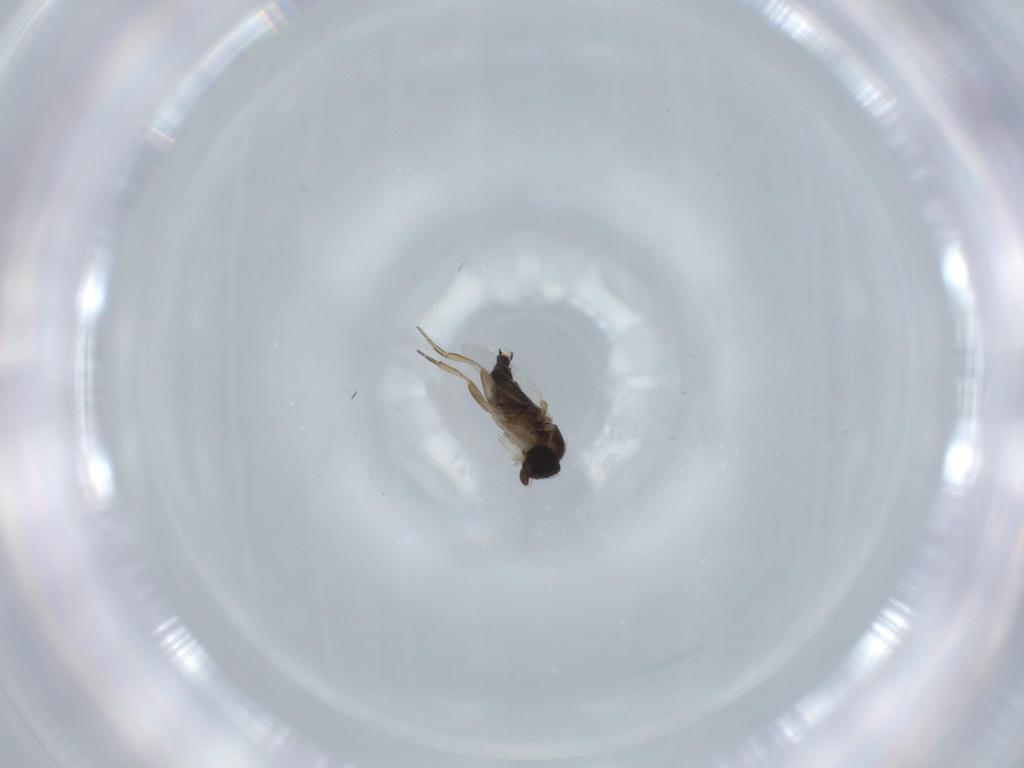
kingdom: Animalia
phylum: Arthropoda
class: Insecta
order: Diptera
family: Phoridae
